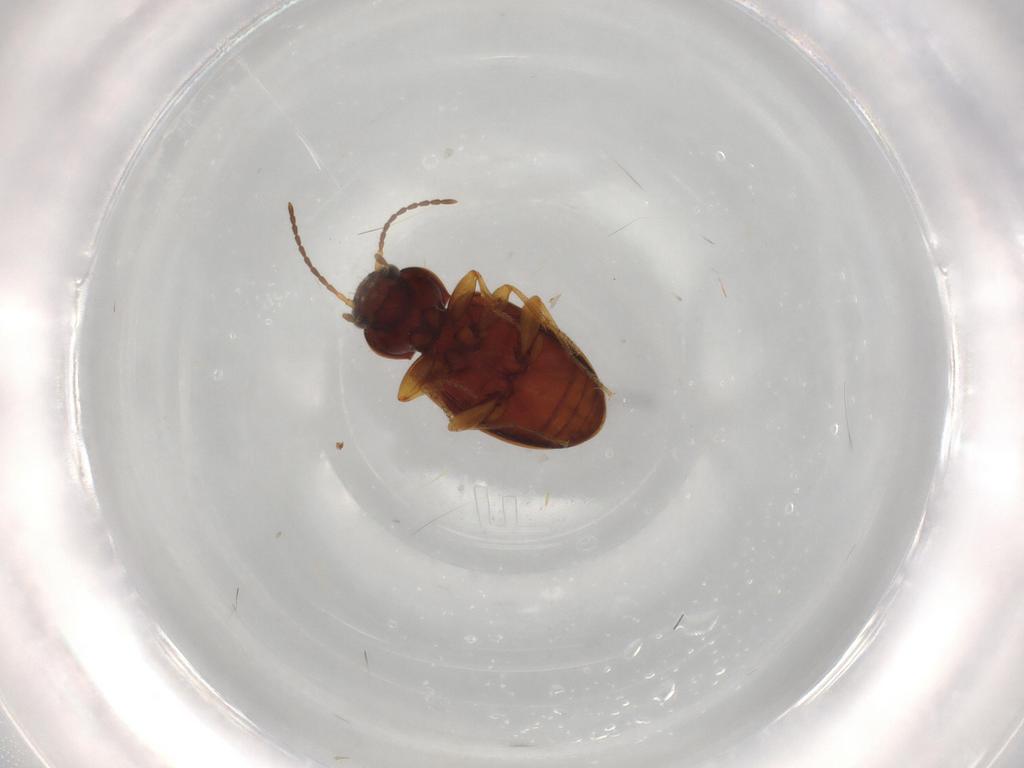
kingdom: Animalia
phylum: Arthropoda
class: Insecta
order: Coleoptera
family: Carabidae
